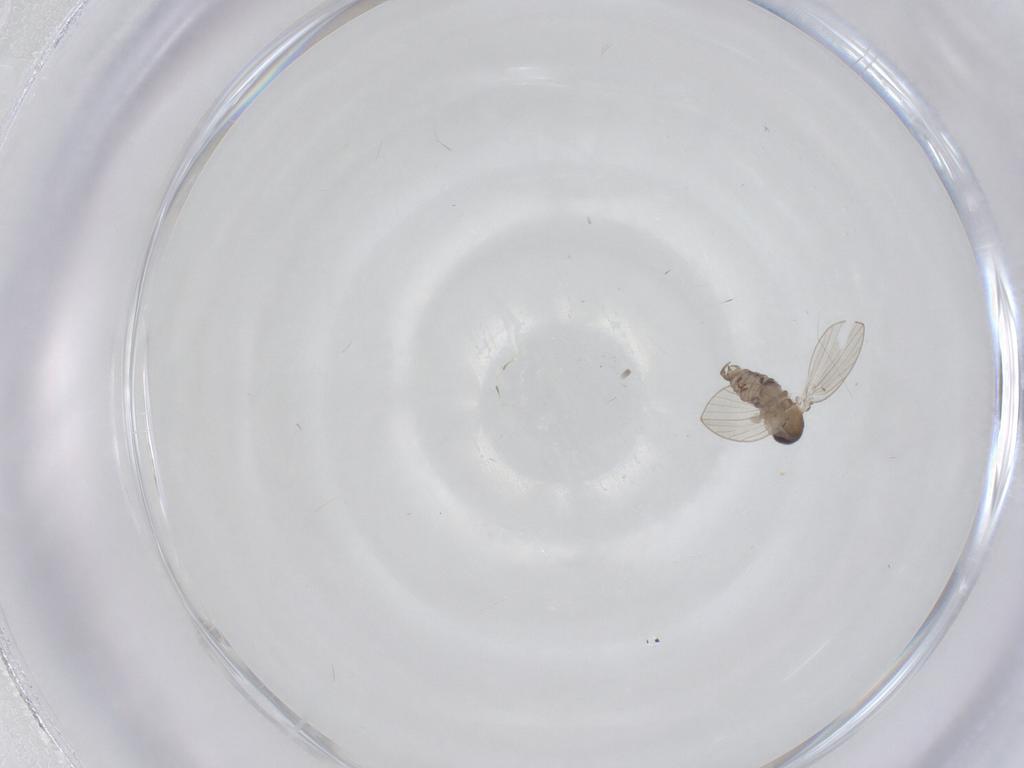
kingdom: Animalia
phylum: Arthropoda
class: Insecta
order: Diptera
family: Psychodidae
